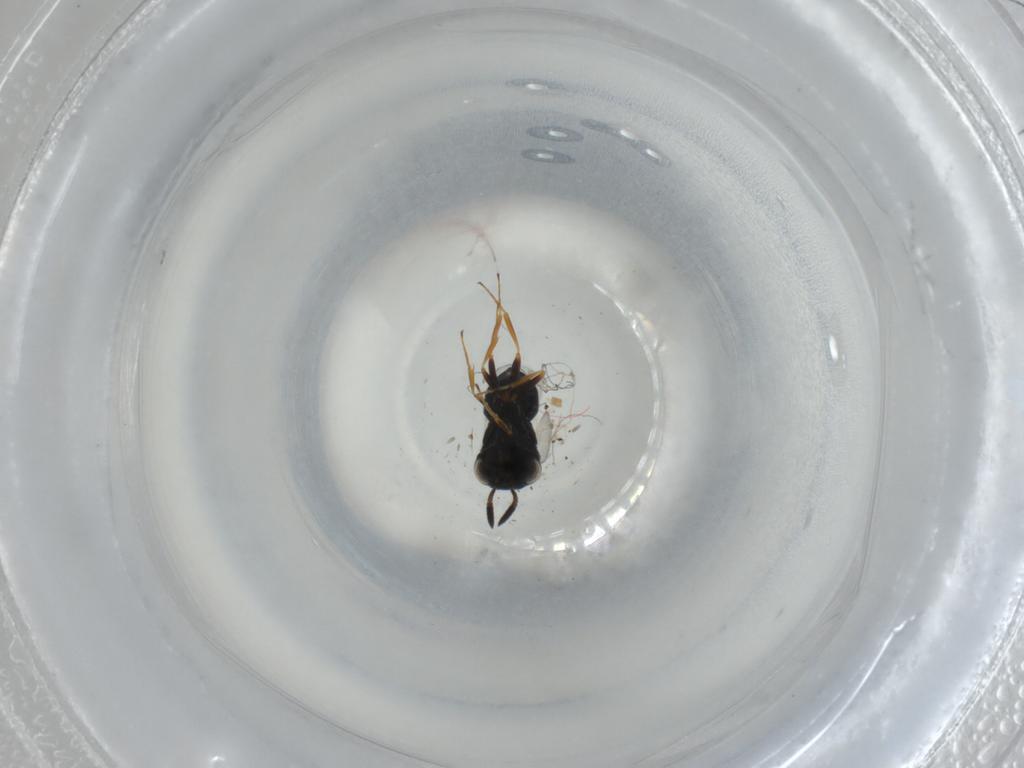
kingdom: Animalia
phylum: Arthropoda
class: Insecta
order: Hymenoptera
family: Scelionidae
